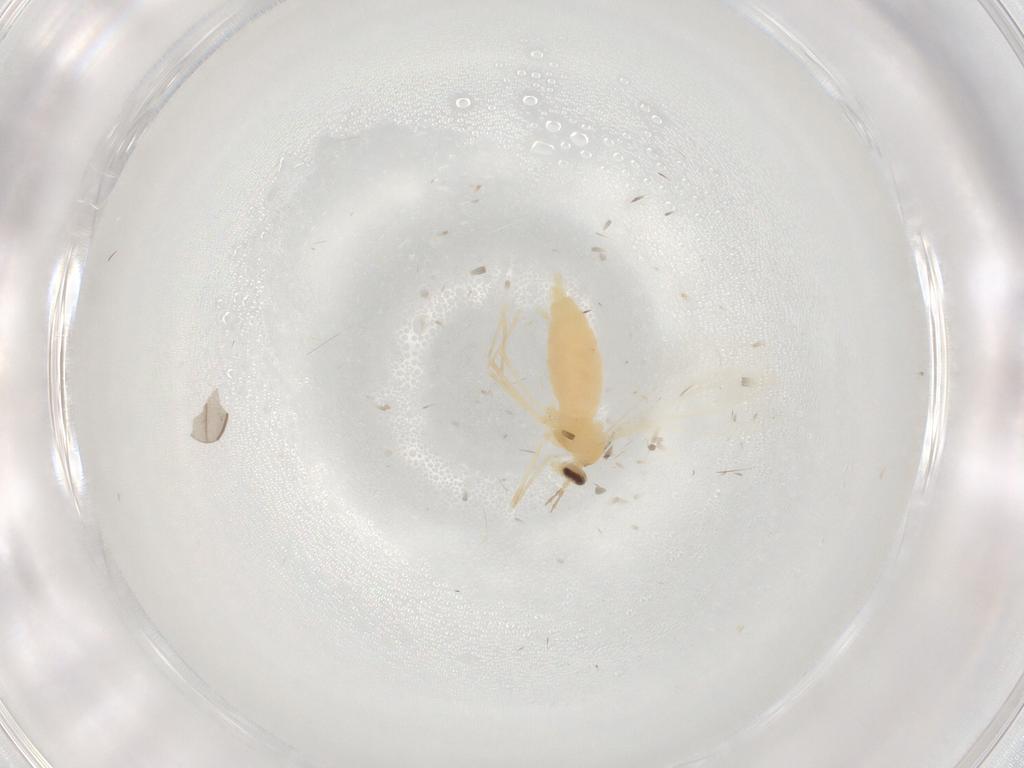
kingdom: Animalia
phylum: Arthropoda
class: Insecta
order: Diptera
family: Cecidomyiidae
